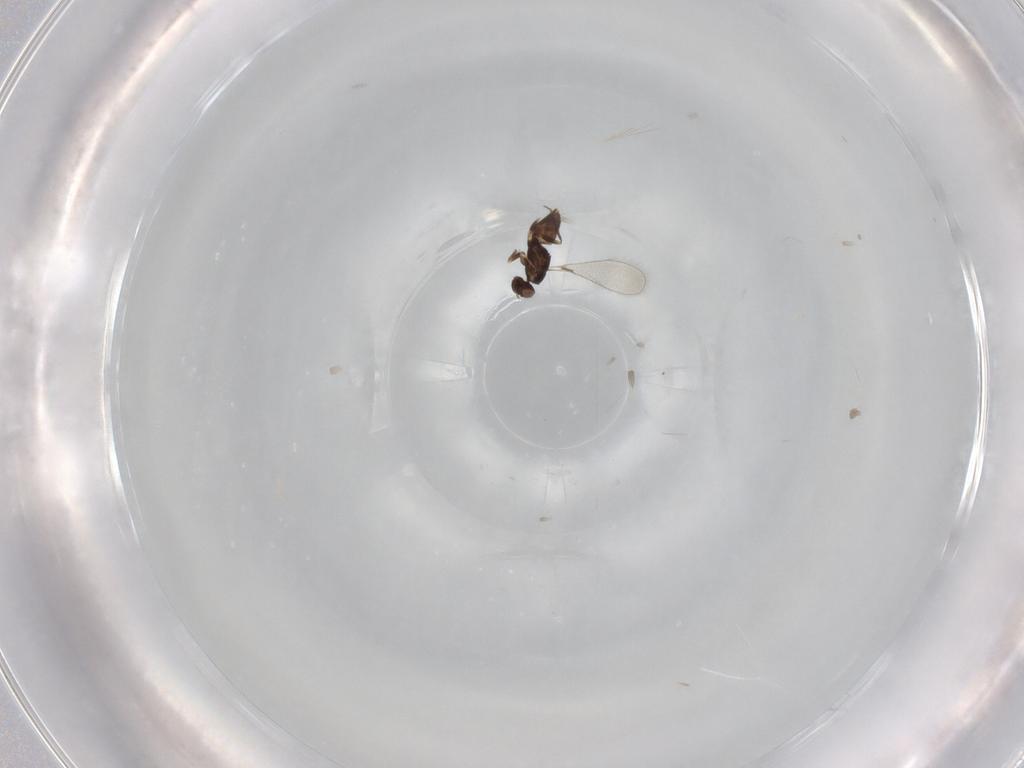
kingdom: Animalia
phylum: Arthropoda
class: Insecta
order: Hymenoptera
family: Mymaridae
